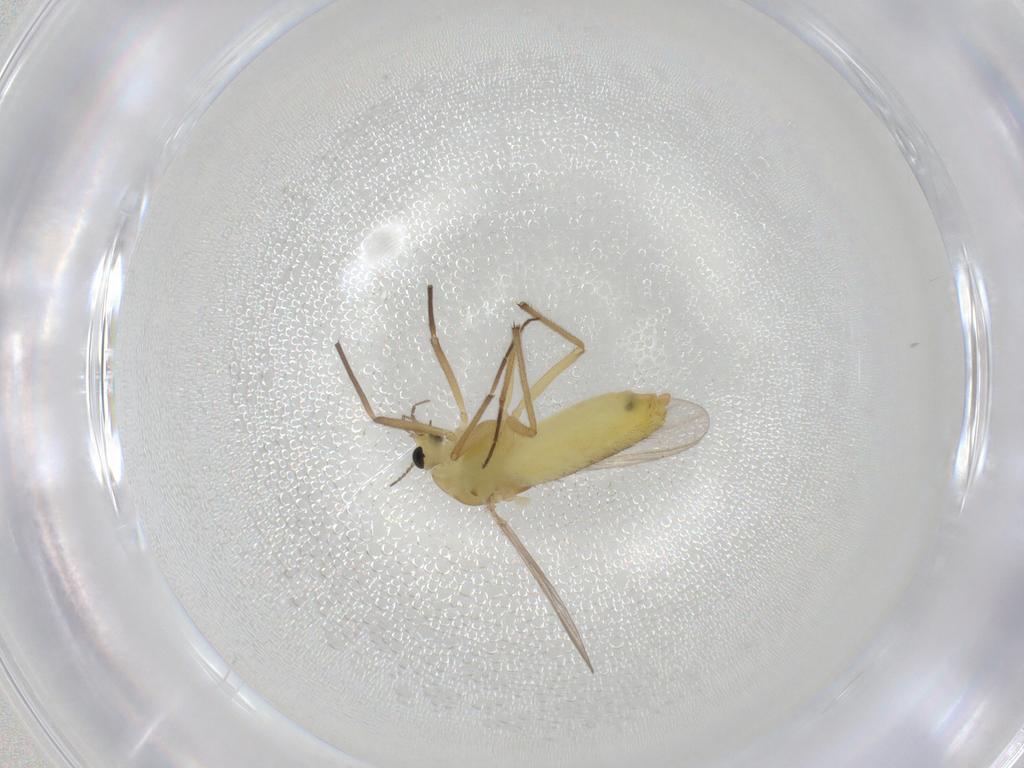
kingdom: Animalia
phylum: Arthropoda
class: Insecta
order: Diptera
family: Chironomidae
